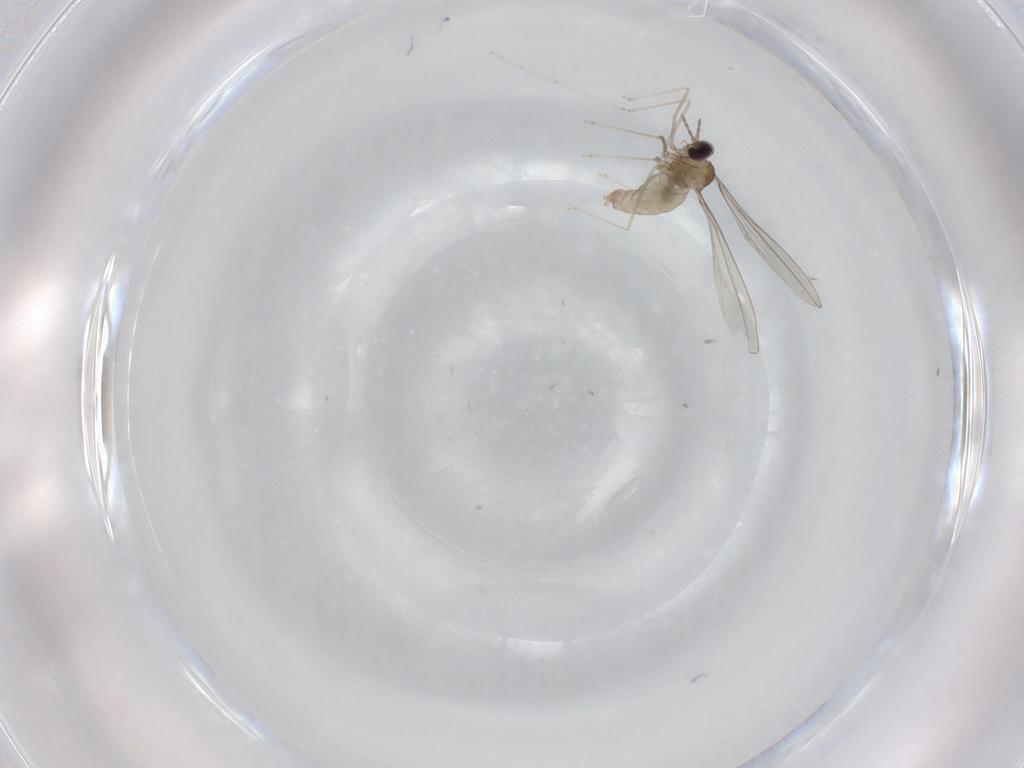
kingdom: Animalia
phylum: Arthropoda
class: Insecta
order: Diptera
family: Phoridae
